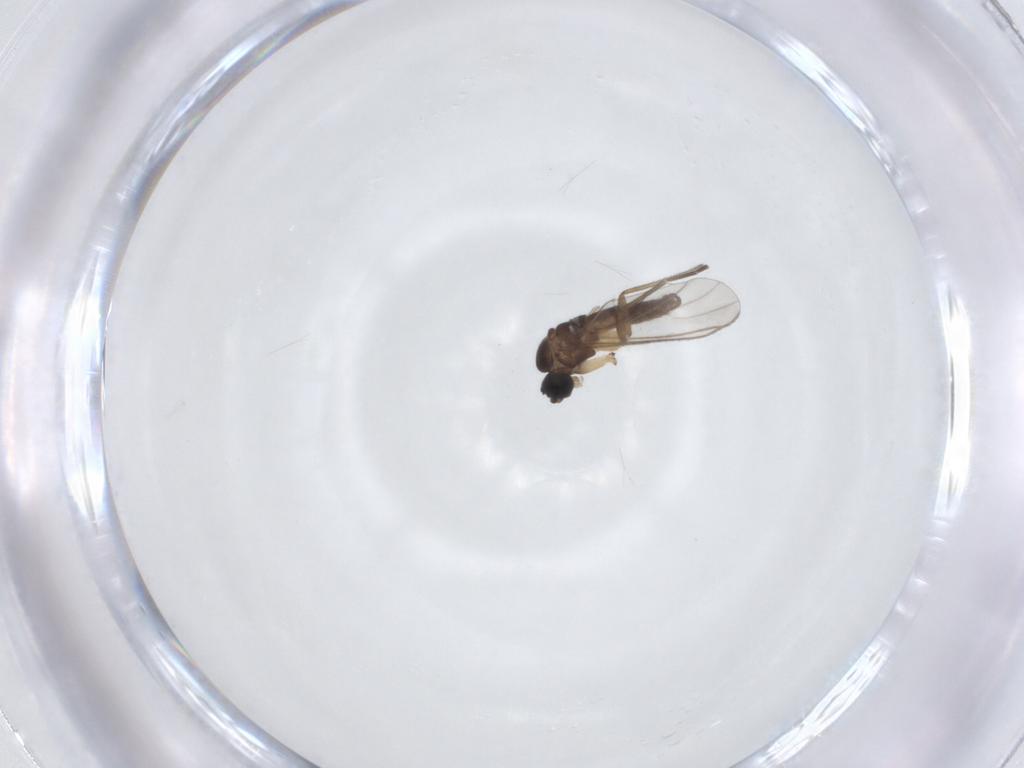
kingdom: Animalia
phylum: Arthropoda
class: Insecta
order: Diptera
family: Sciaridae
